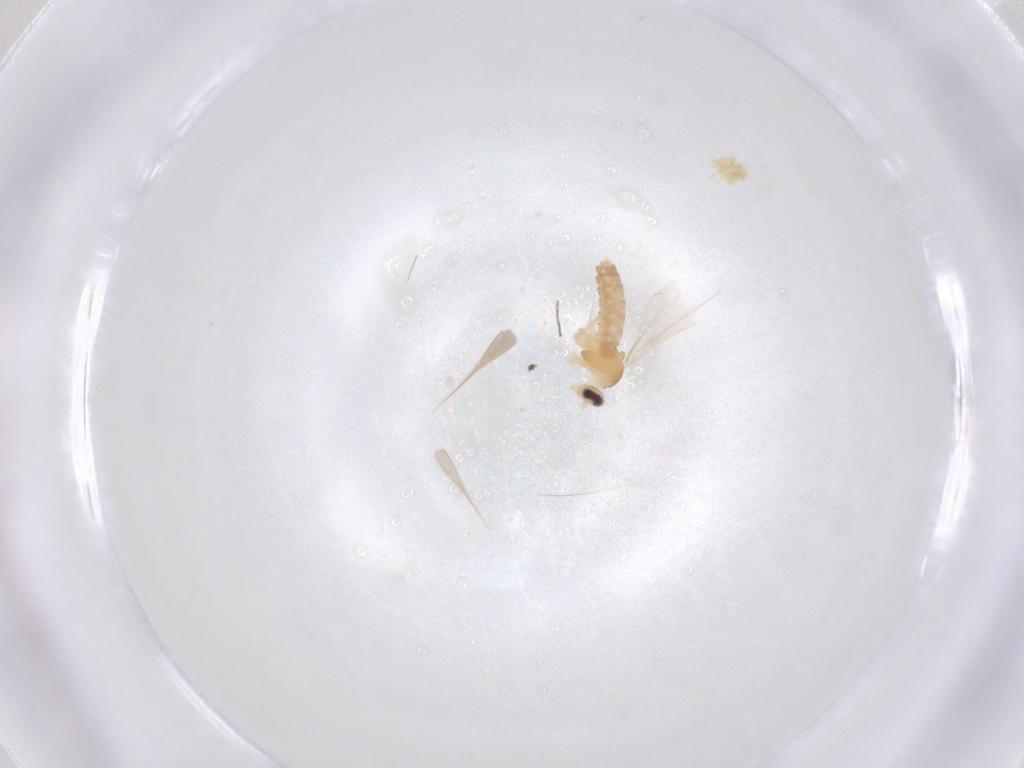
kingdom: Animalia
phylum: Arthropoda
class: Insecta
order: Diptera
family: Cecidomyiidae
